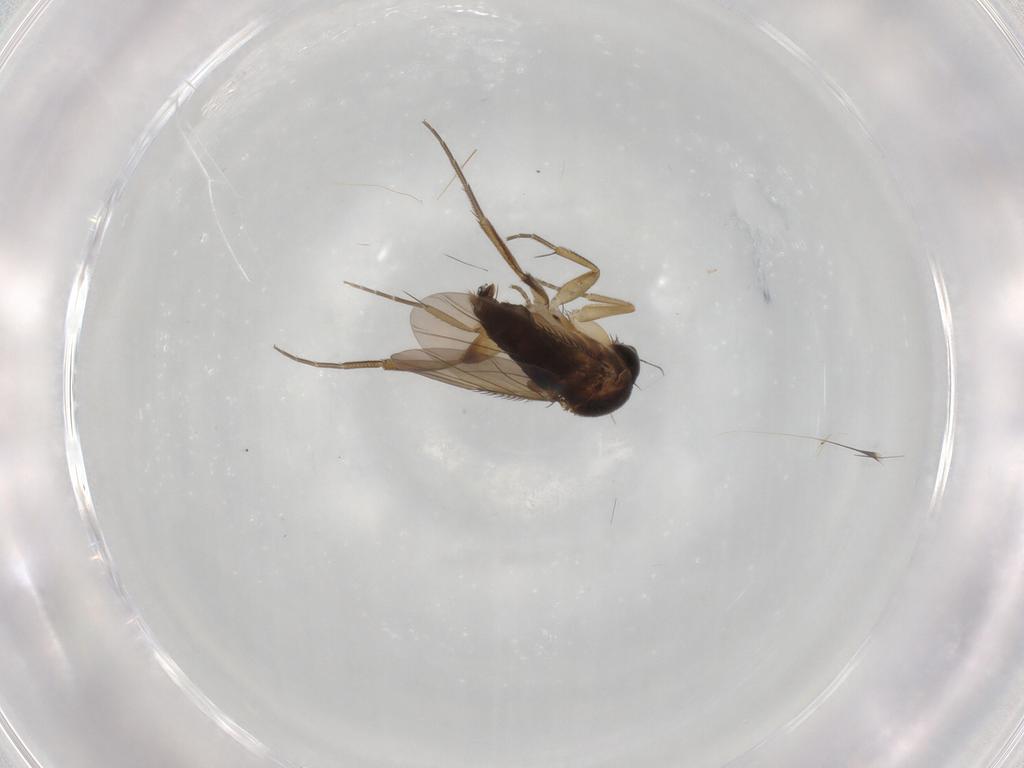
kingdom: Animalia
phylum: Arthropoda
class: Insecta
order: Diptera
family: Phoridae
